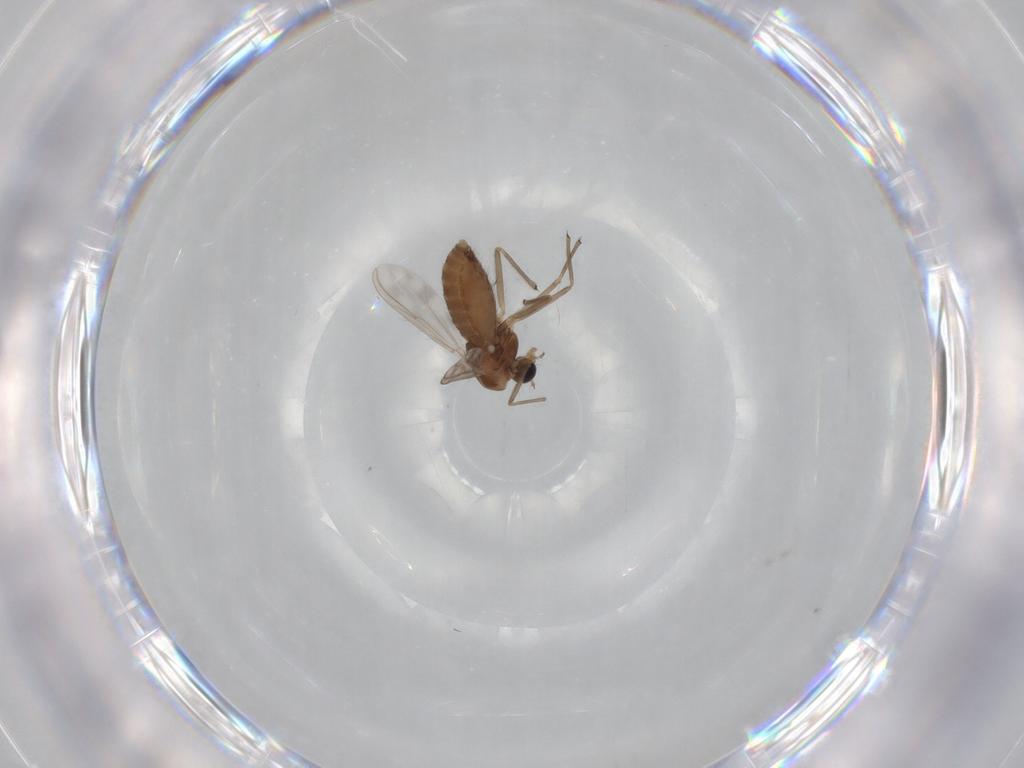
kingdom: Animalia
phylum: Arthropoda
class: Insecta
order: Diptera
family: Chironomidae
